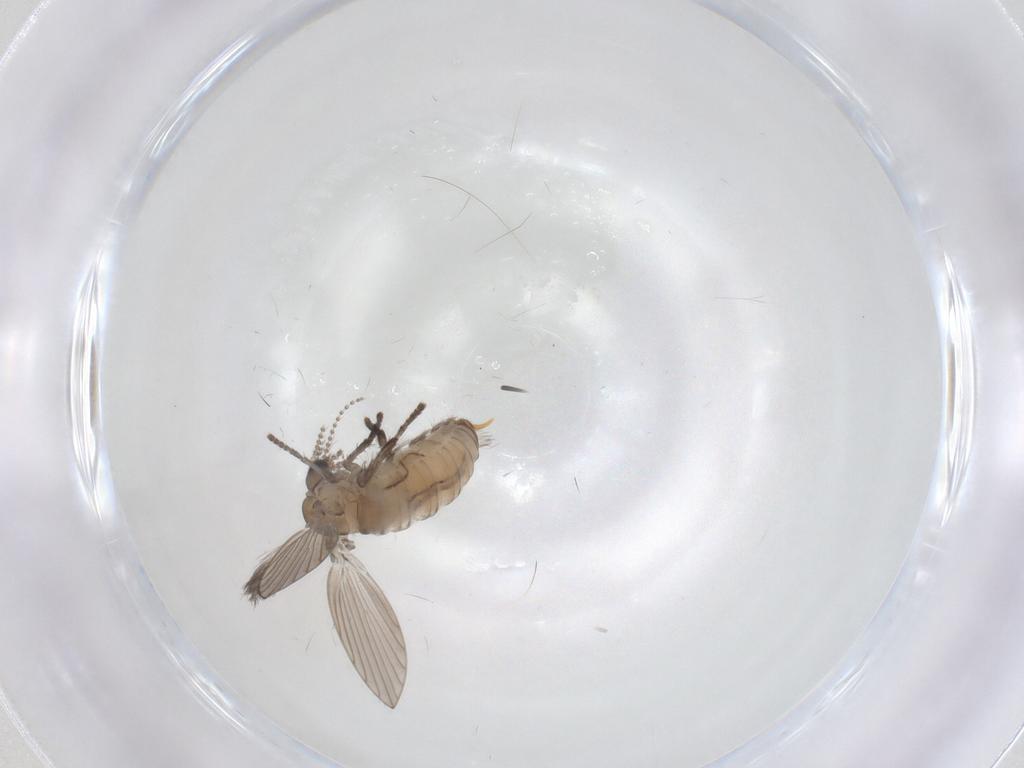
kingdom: Animalia
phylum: Arthropoda
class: Insecta
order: Diptera
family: Psychodidae
